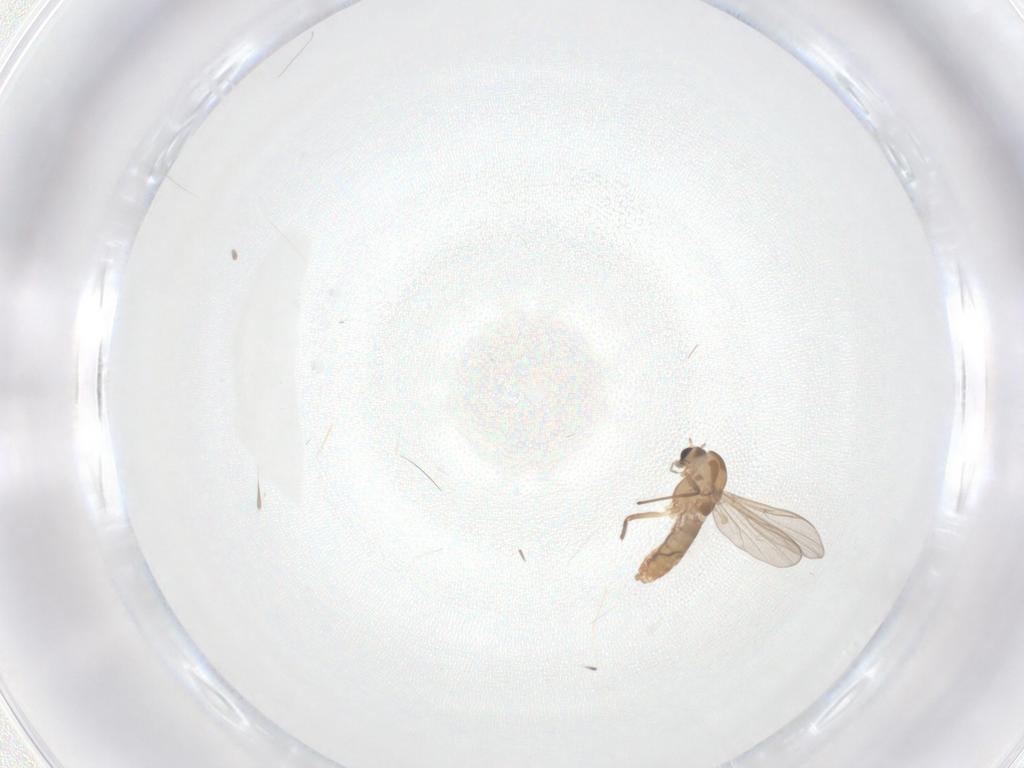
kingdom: Animalia
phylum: Arthropoda
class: Insecta
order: Diptera
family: Chironomidae
